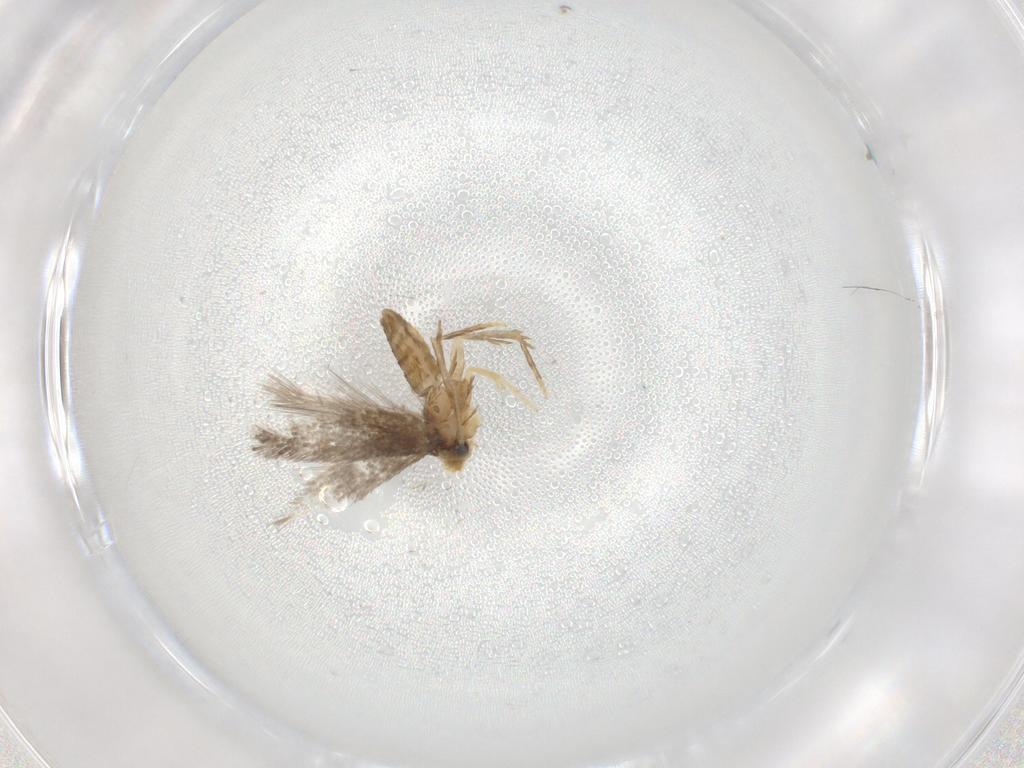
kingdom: Animalia
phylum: Arthropoda
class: Insecta
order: Lepidoptera
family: Nepticulidae
